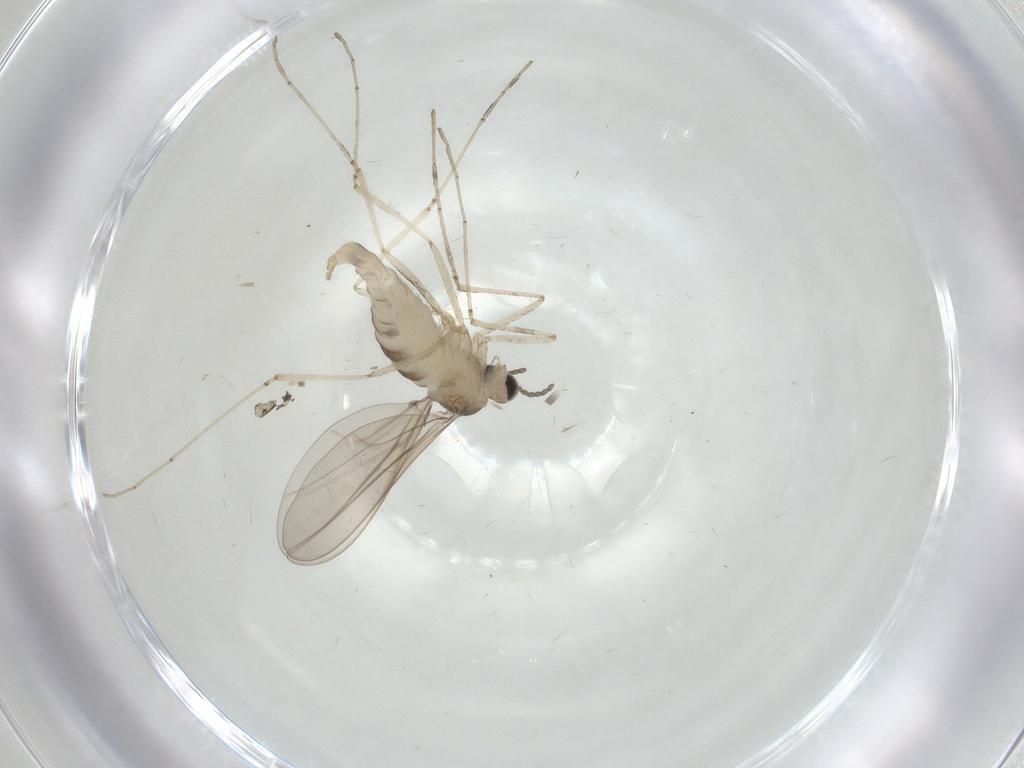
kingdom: Animalia
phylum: Arthropoda
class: Insecta
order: Diptera
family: Cecidomyiidae
